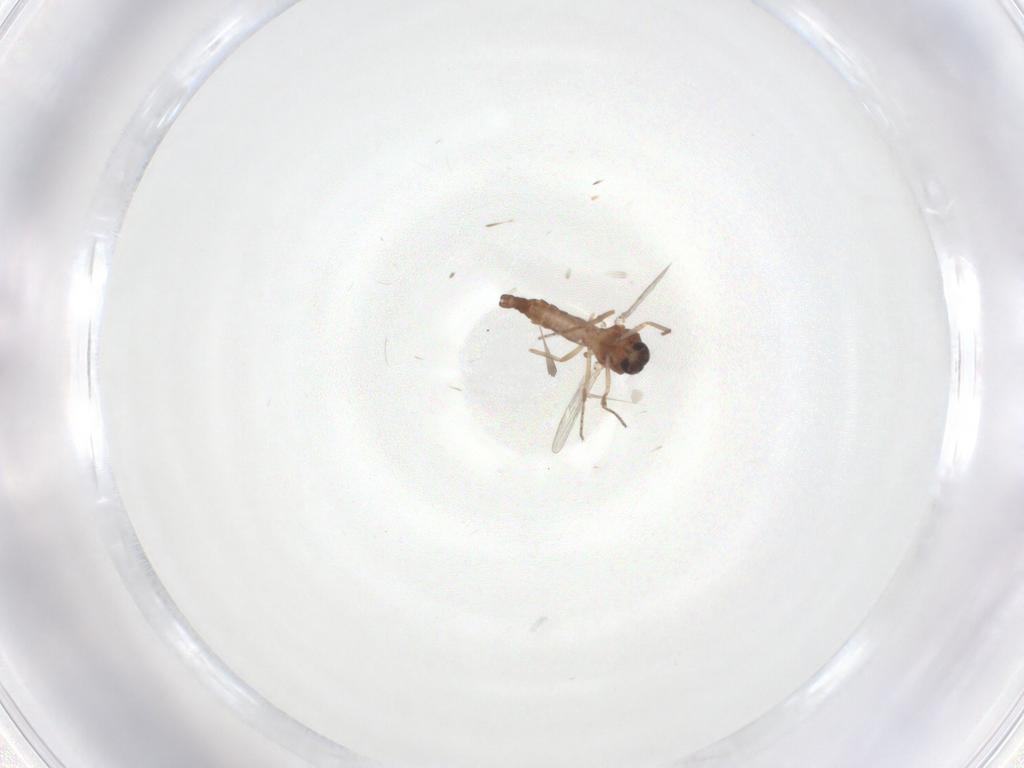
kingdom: Animalia
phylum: Arthropoda
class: Insecta
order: Diptera
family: Ceratopogonidae
